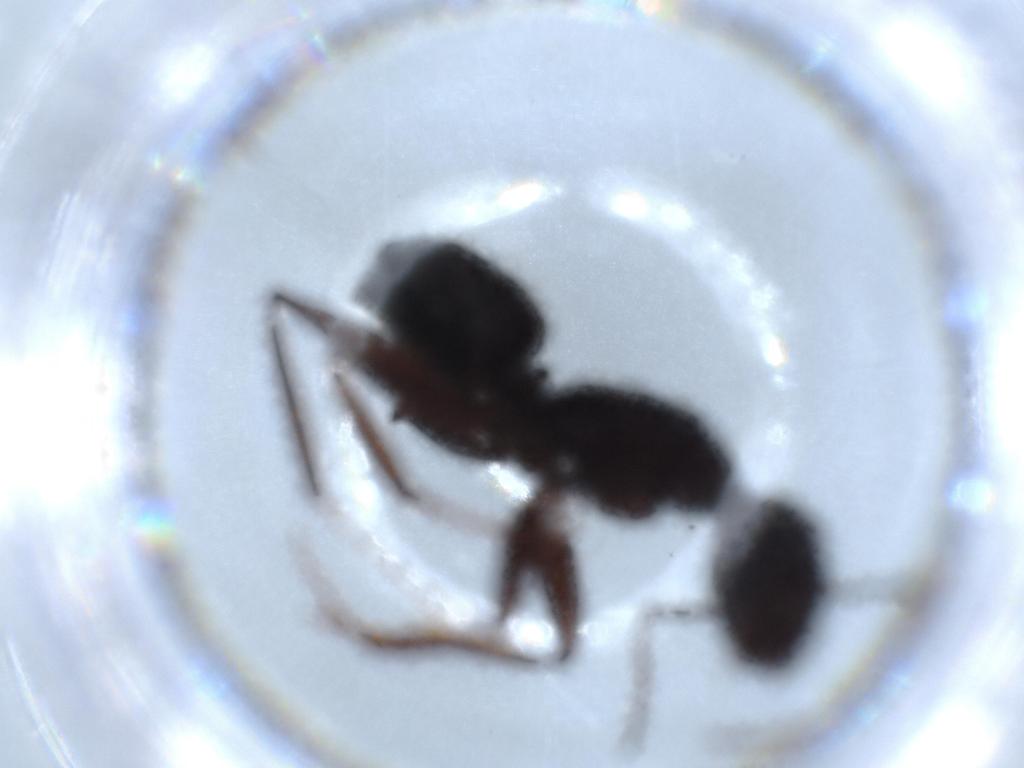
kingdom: Animalia
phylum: Arthropoda
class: Insecta
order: Hymenoptera
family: Formicidae
